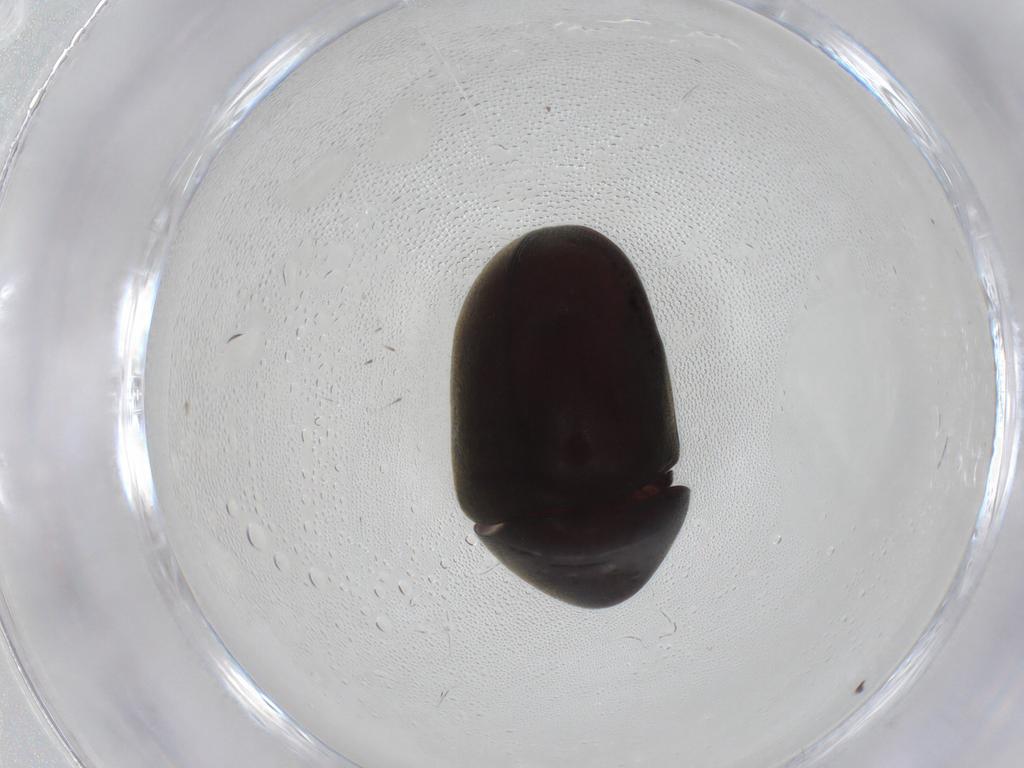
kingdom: Animalia
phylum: Arthropoda
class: Insecta
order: Coleoptera
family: Ptinidae
